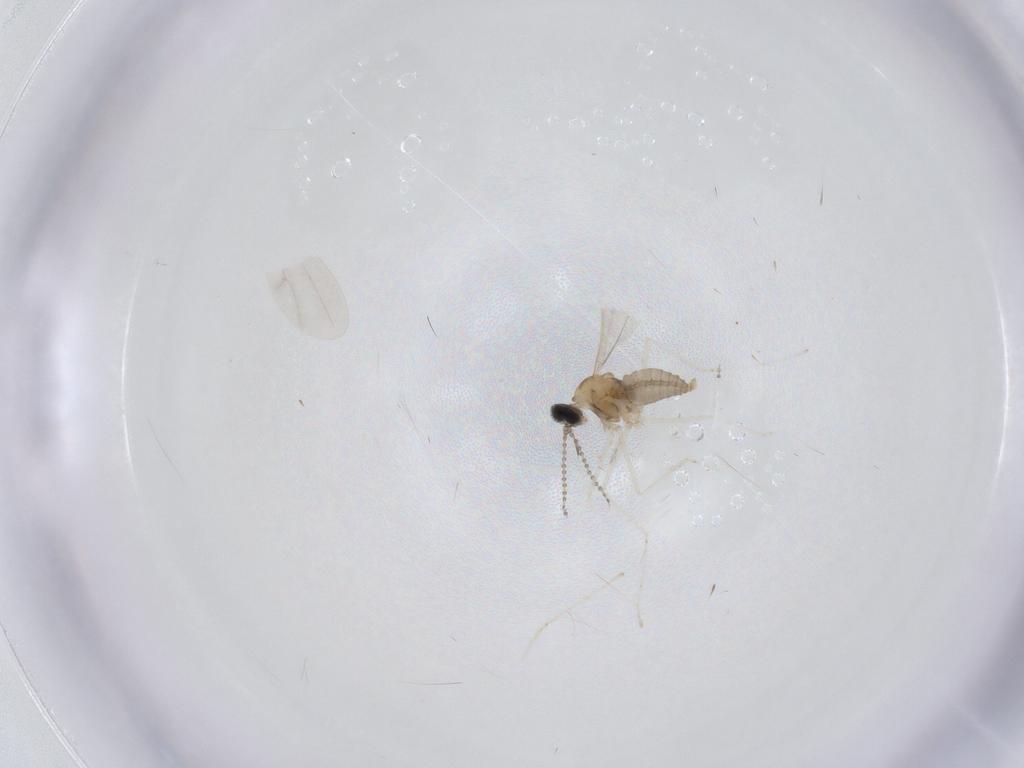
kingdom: Animalia
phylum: Arthropoda
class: Insecta
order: Diptera
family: Cecidomyiidae
